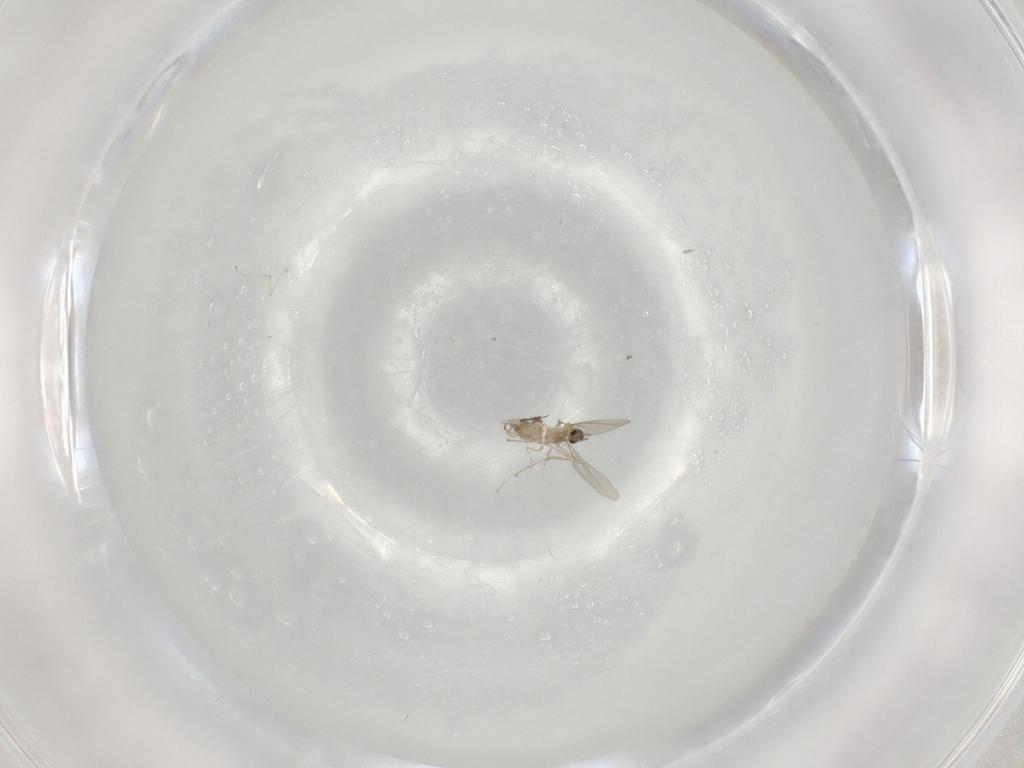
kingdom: Animalia
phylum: Arthropoda
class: Insecta
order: Diptera
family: Cecidomyiidae
